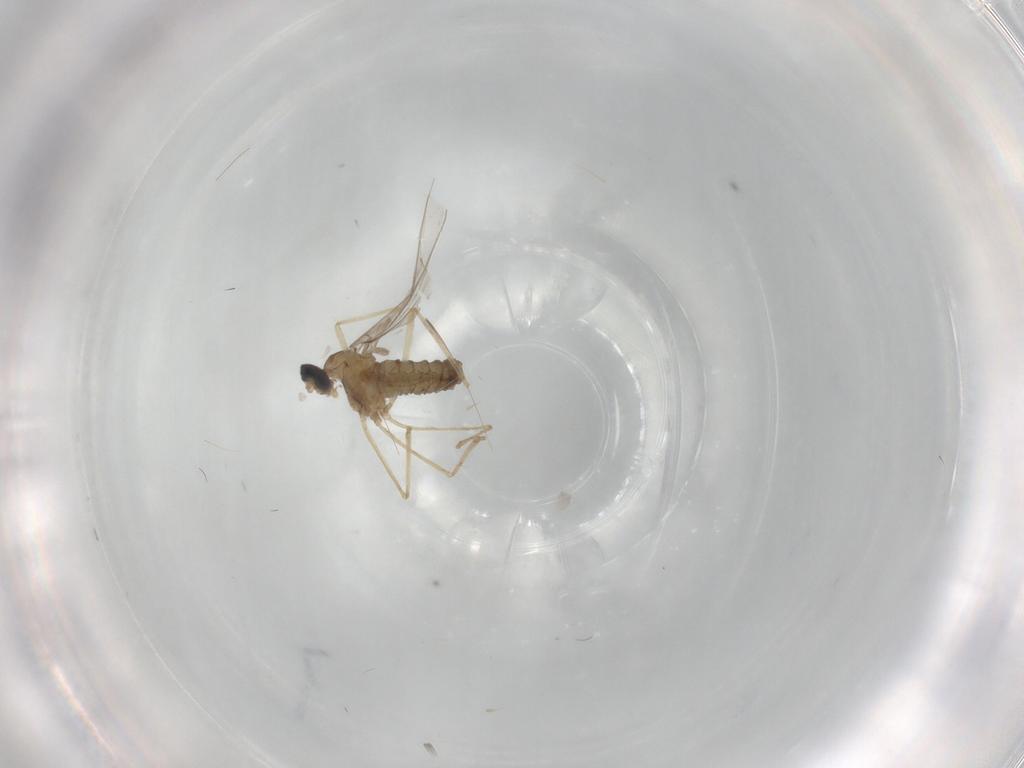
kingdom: Animalia
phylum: Arthropoda
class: Insecta
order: Diptera
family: Cecidomyiidae
